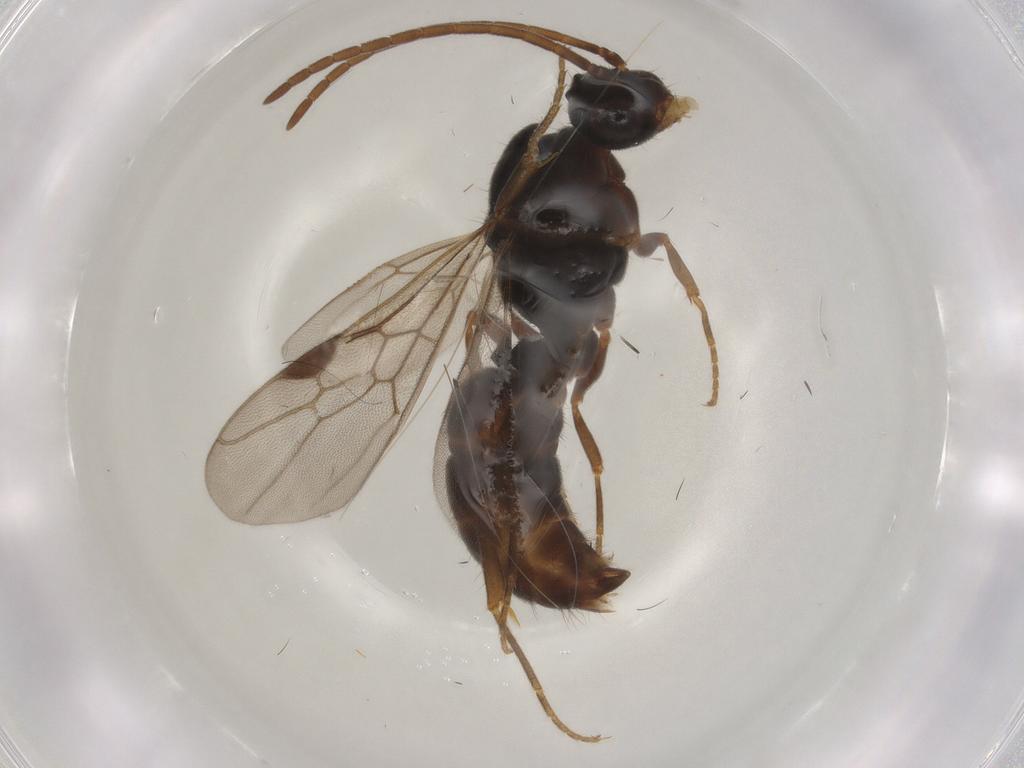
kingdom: Animalia
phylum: Arthropoda
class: Insecta
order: Hymenoptera
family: Formicidae
